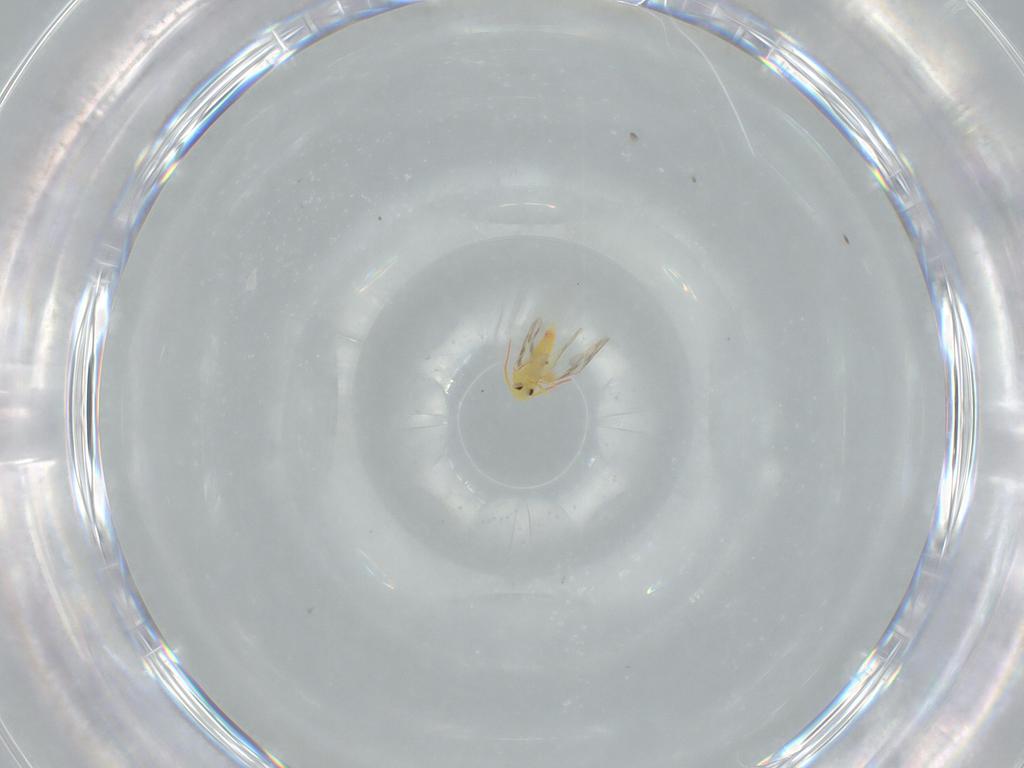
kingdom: Animalia
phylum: Arthropoda
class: Insecta
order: Hemiptera
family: Aleyrodidae
